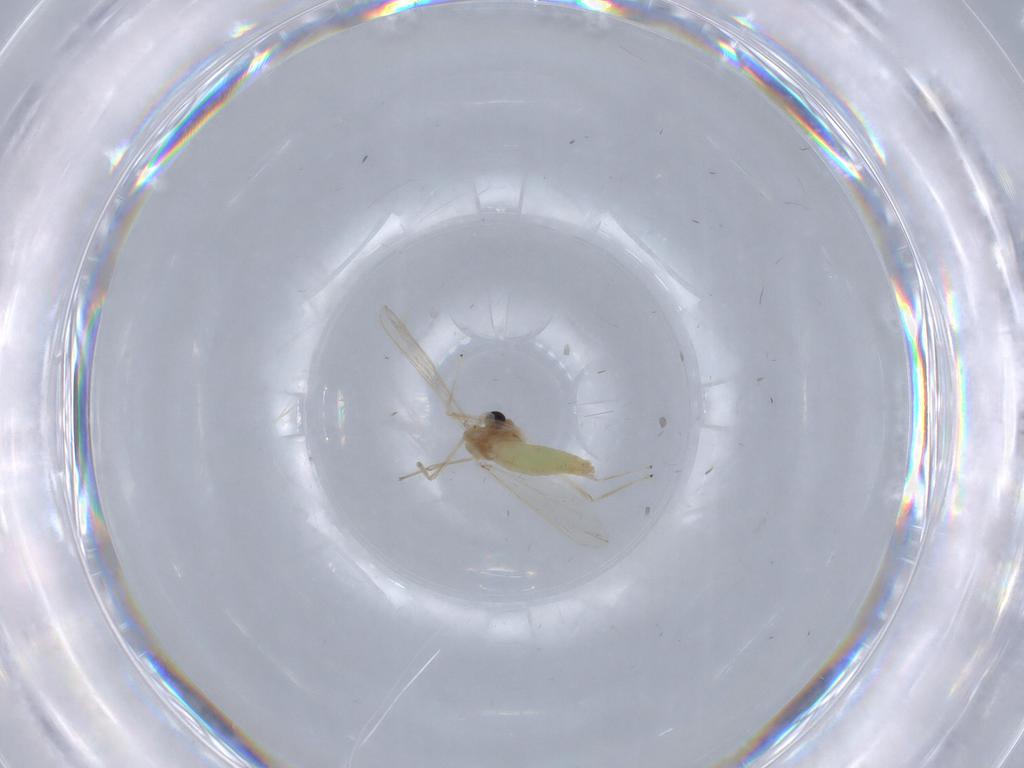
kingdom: Animalia
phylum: Arthropoda
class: Insecta
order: Diptera
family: Chironomidae
